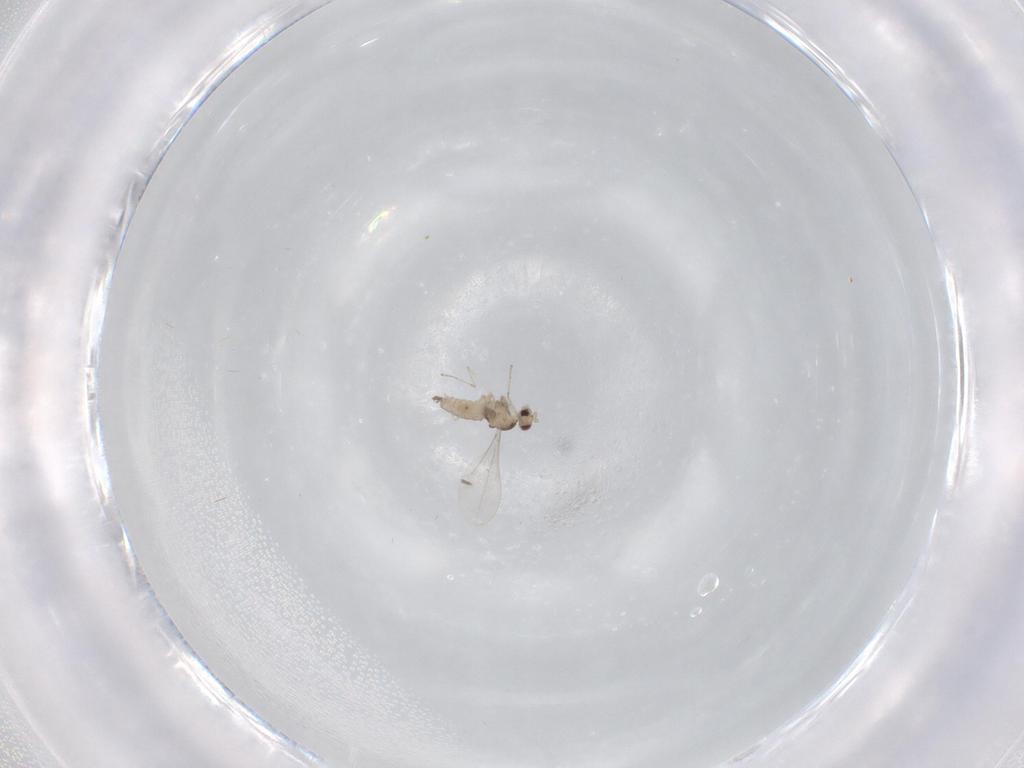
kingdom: Animalia
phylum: Arthropoda
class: Insecta
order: Diptera
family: Cecidomyiidae
